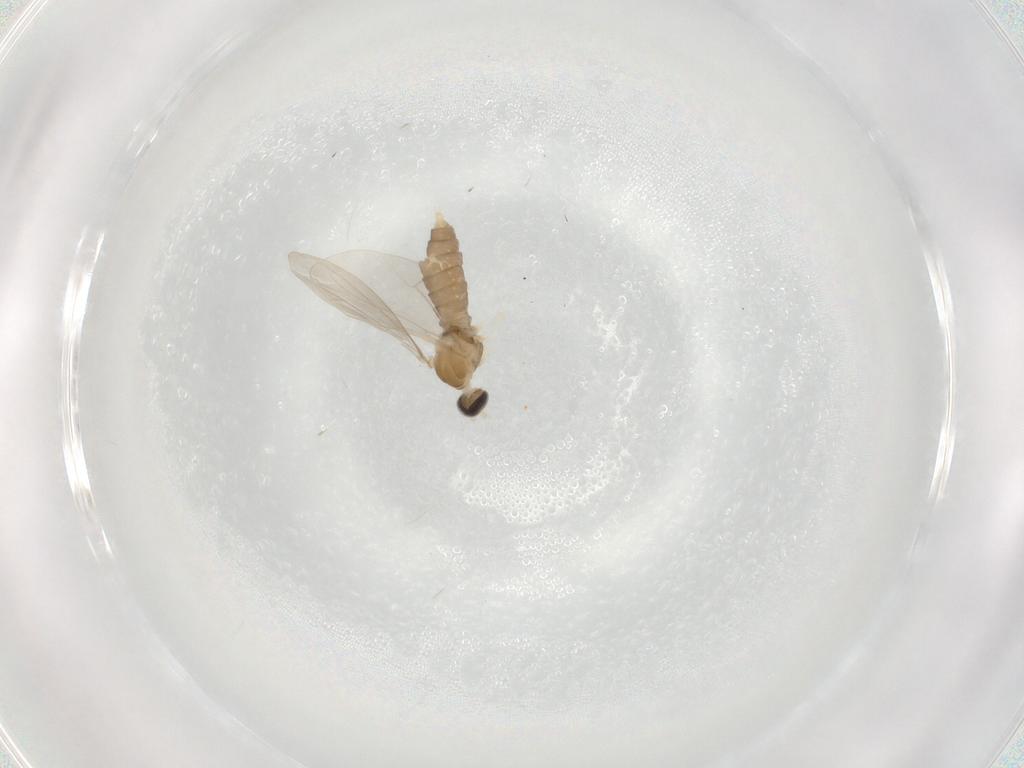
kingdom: Animalia
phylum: Arthropoda
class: Insecta
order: Diptera
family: Cecidomyiidae
